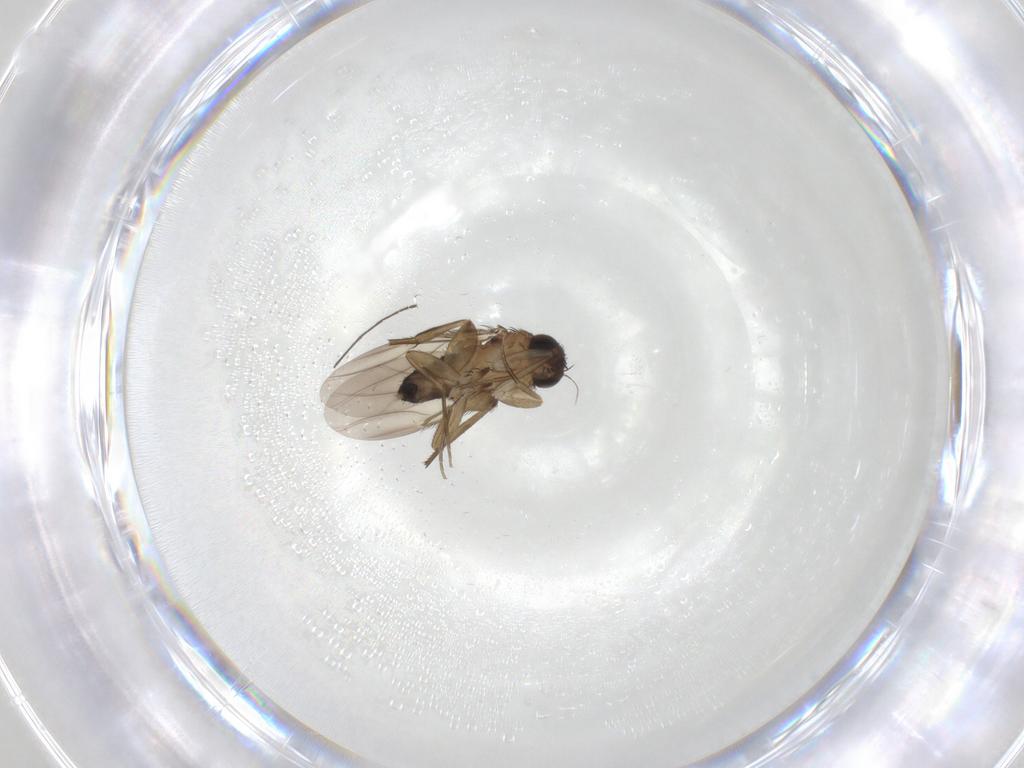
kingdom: Animalia
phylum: Arthropoda
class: Insecta
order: Diptera
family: Phoridae
